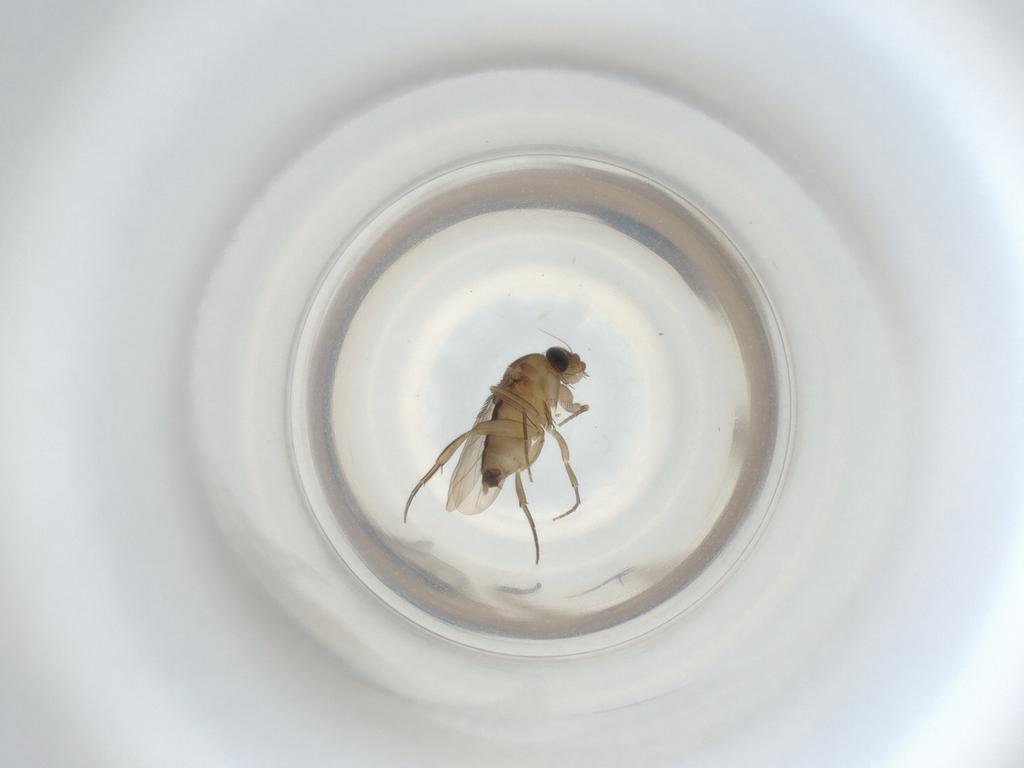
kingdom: Animalia
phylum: Arthropoda
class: Insecta
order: Diptera
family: Phoridae
